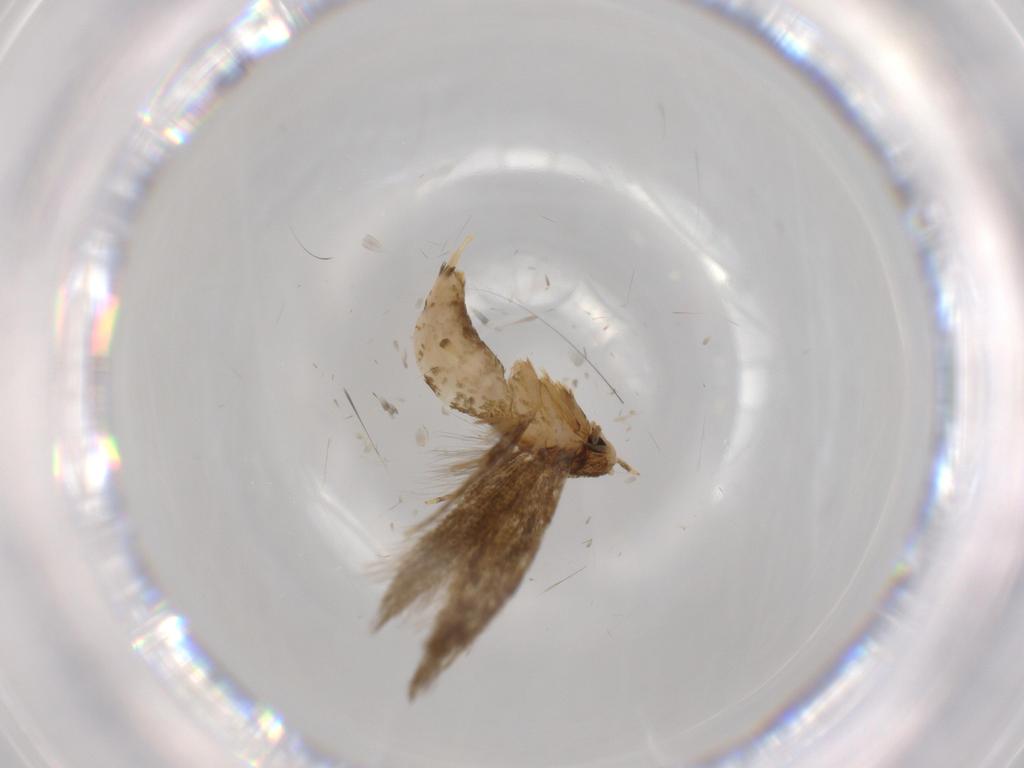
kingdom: Animalia
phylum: Arthropoda
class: Insecta
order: Lepidoptera
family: Tineidae
